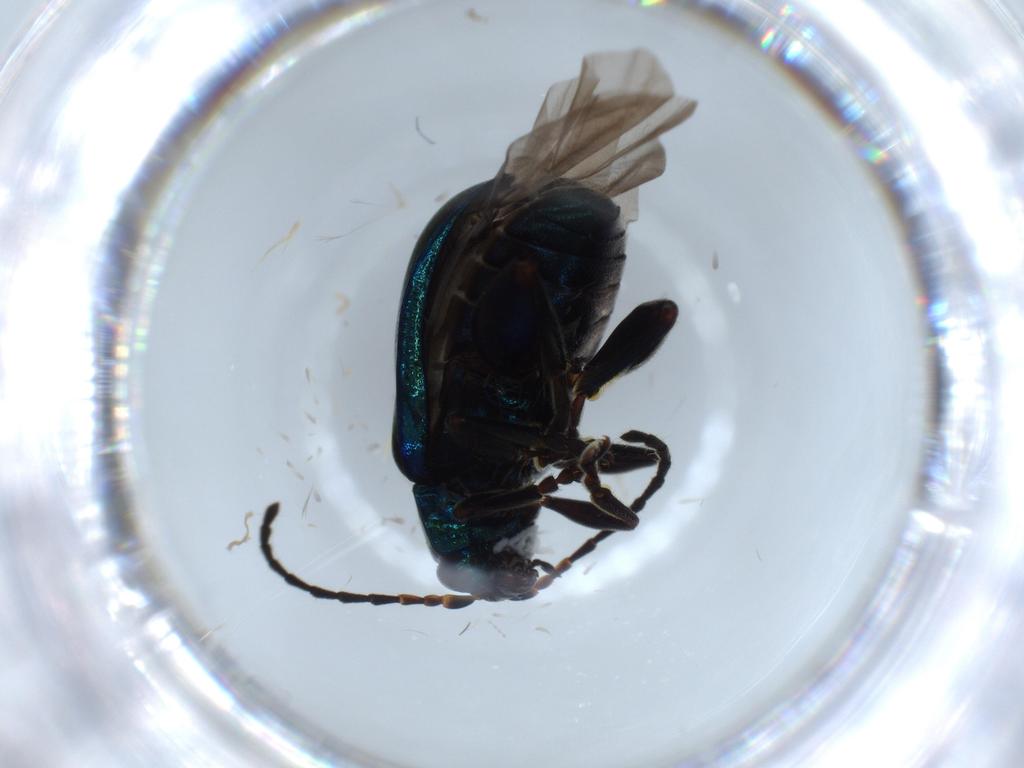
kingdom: Animalia
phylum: Arthropoda
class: Insecta
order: Coleoptera
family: Chrysomelidae
